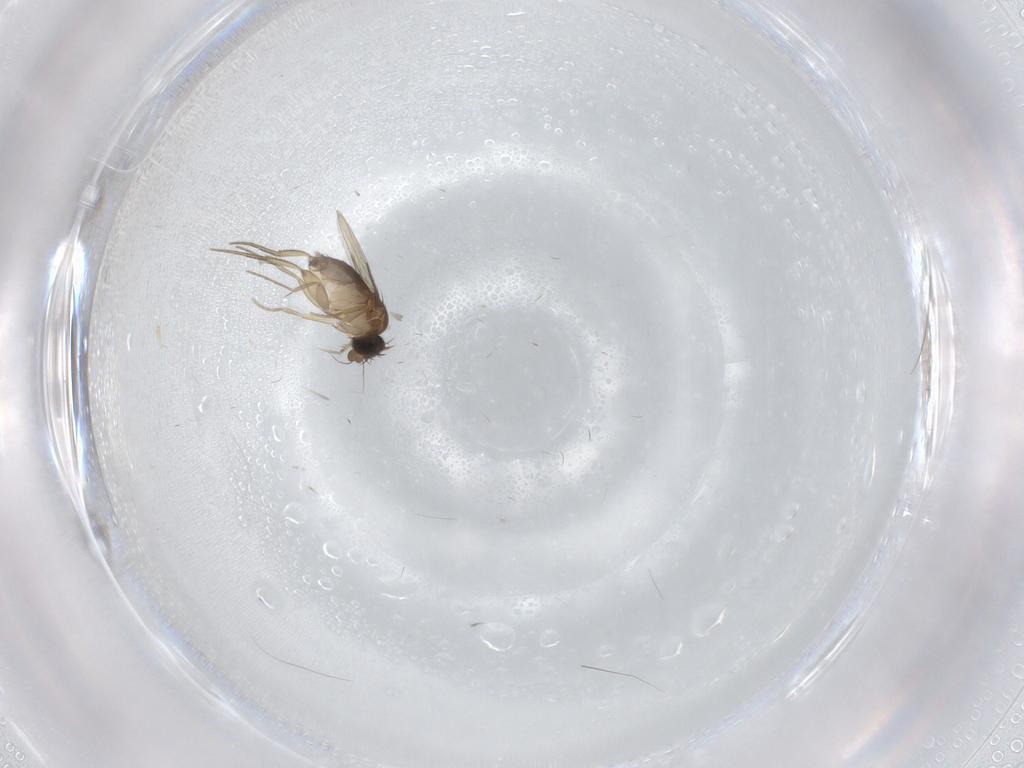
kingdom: Animalia
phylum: Arthropoda
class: Insecta
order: Diptera
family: Phoridae
